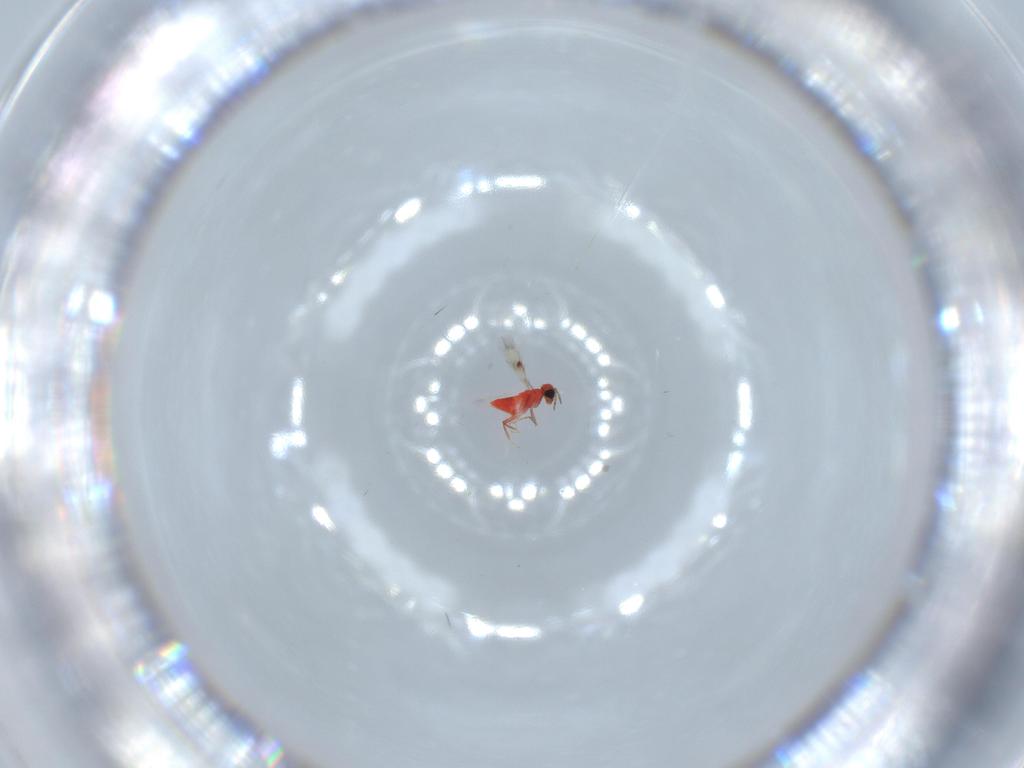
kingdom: Animalia
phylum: Arthropoda
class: Insecta
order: Hymenoptera
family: Trichogrammatidae
